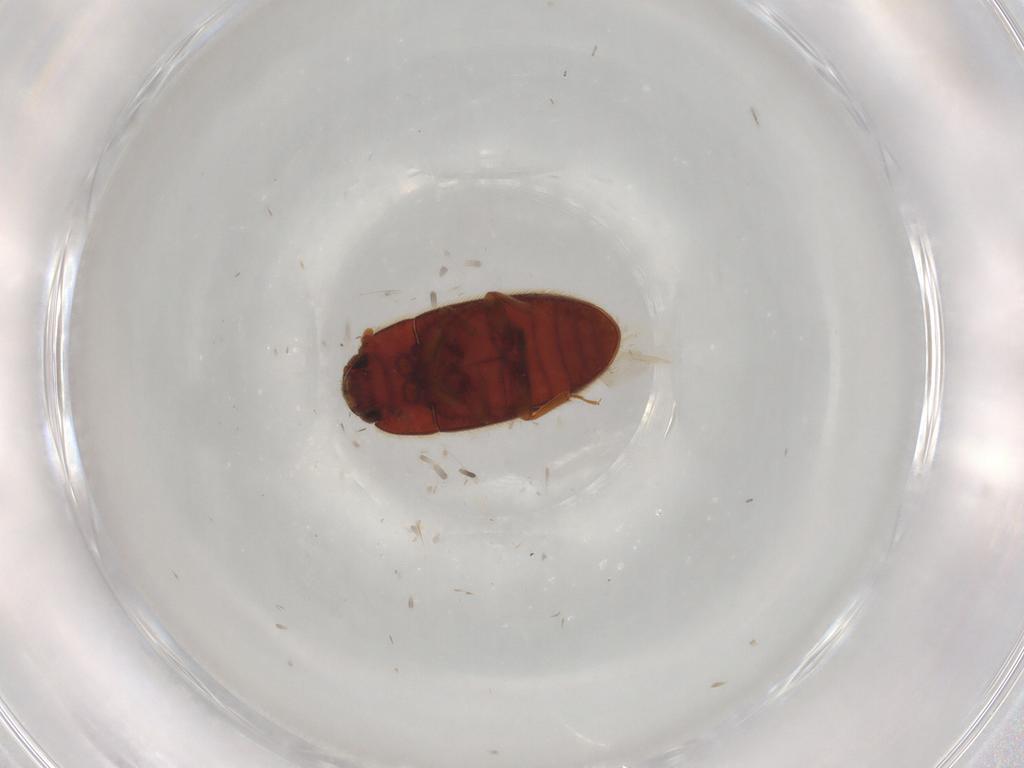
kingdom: Animalia
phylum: Arthropoda
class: Insecta
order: Coleoptera
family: Biphyllidae
